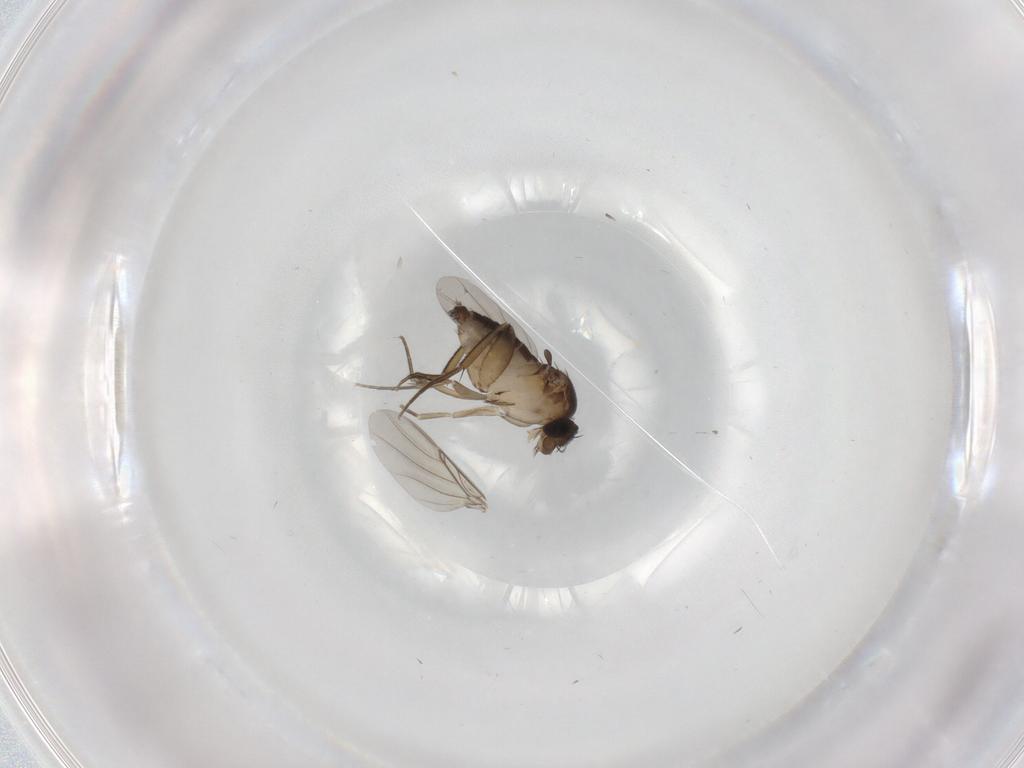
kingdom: Animalia
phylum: Arthropoda
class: Insecta
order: Diptera
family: Phoridae
